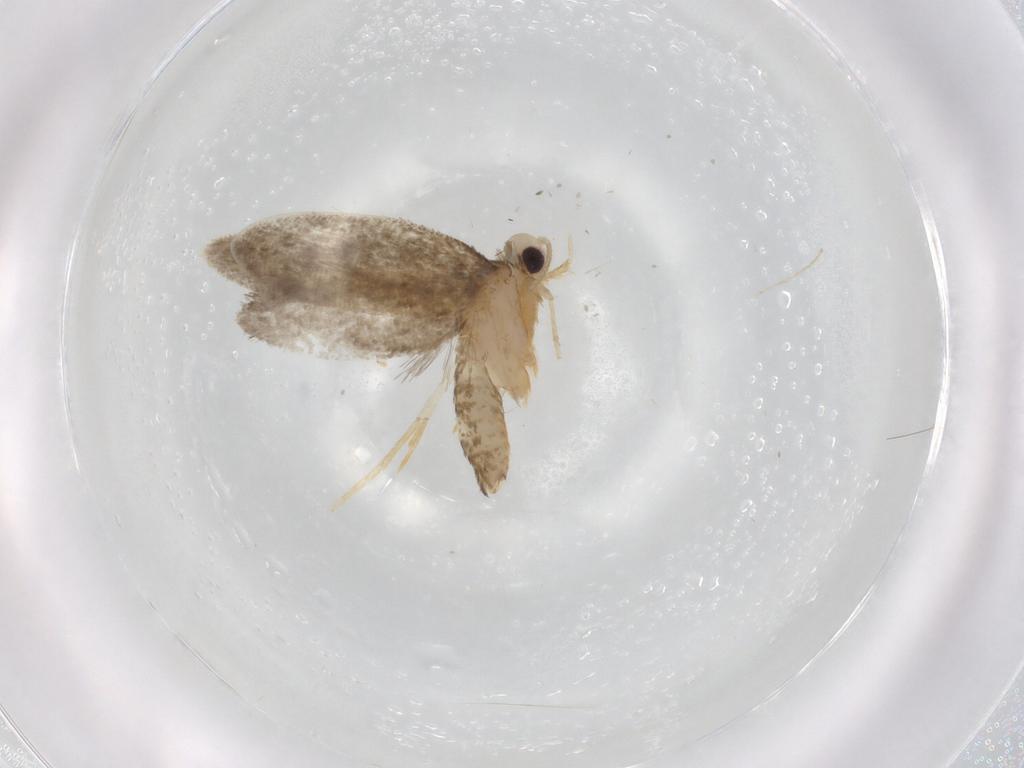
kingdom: Animalia
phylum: Arthropoda
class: Insecta
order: Lepidoptera
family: Psychidae
